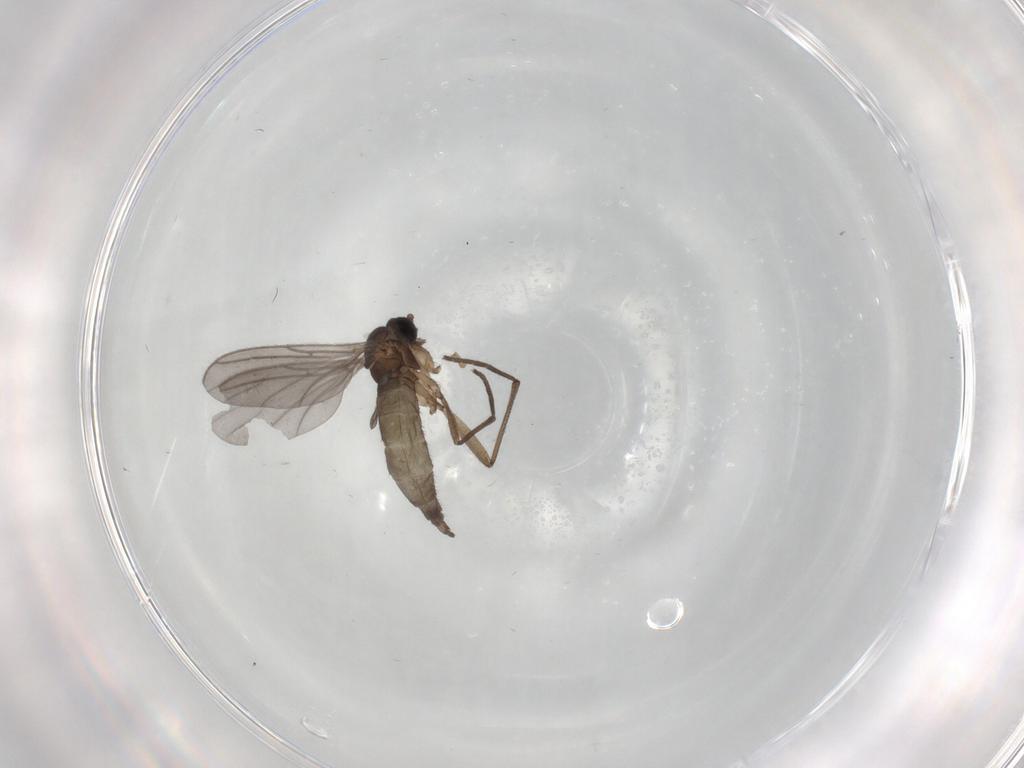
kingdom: Animalia
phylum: Arthropoda
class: Insecta
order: Diptera
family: Sciaridae
